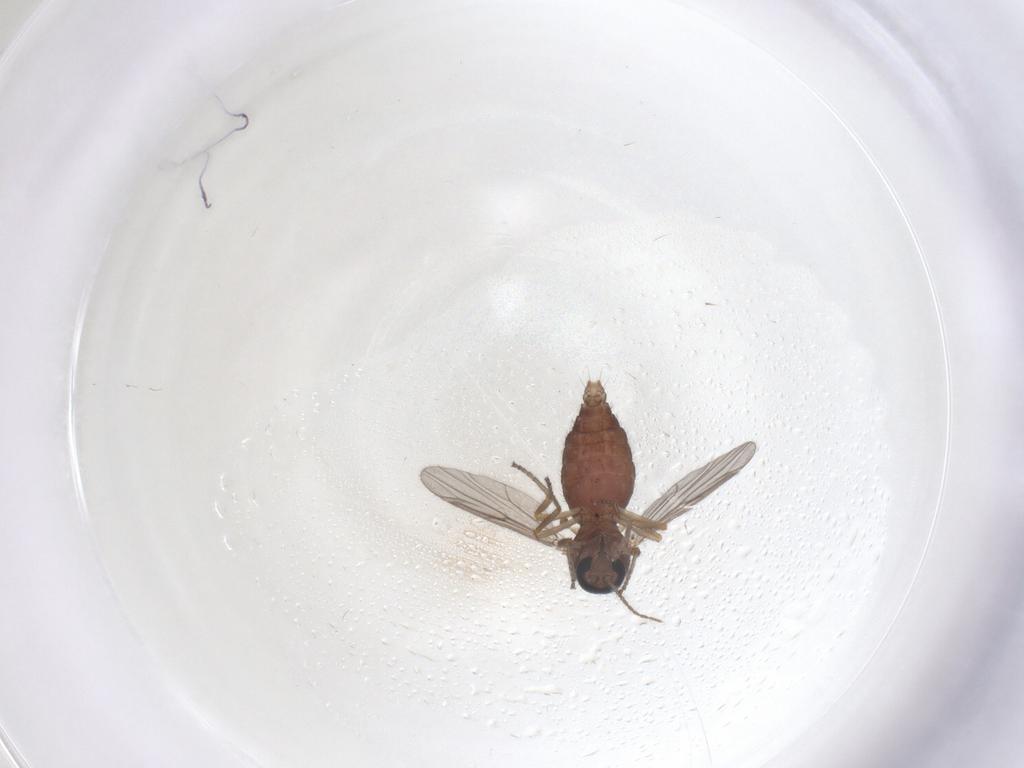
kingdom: Animalia
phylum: Arthropoda
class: Insecta
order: Diptera
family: Ceratopogonidae
